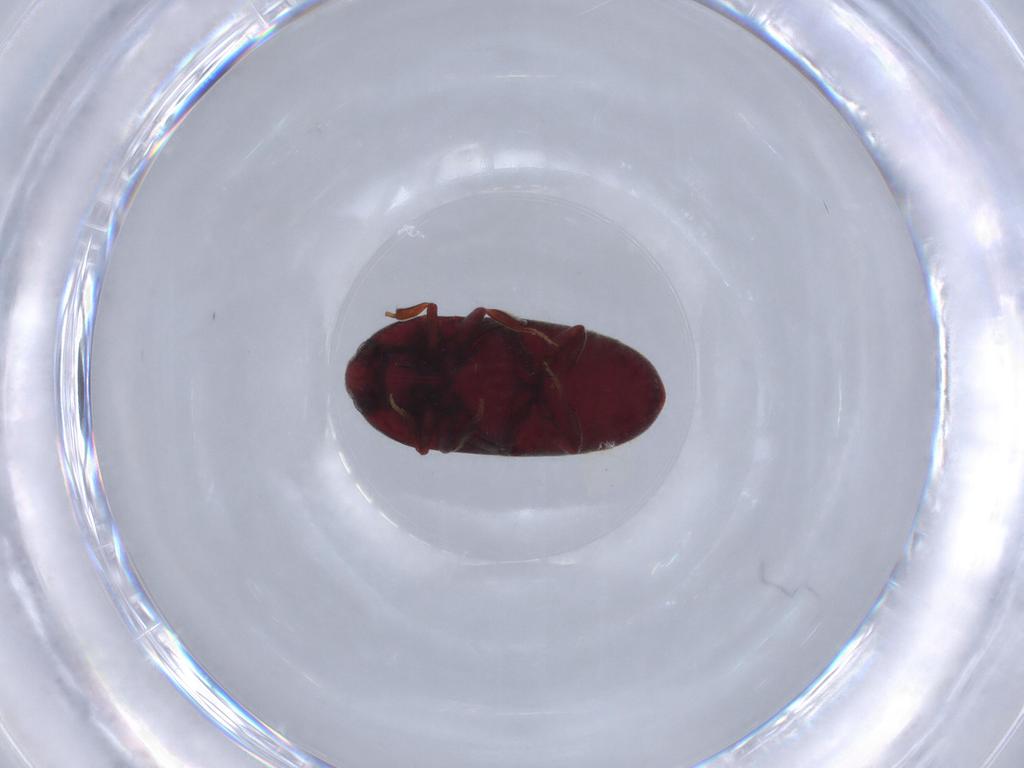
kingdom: Animalia
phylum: Arthropoda
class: Insecta
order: Coleoptera
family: Throscidae
